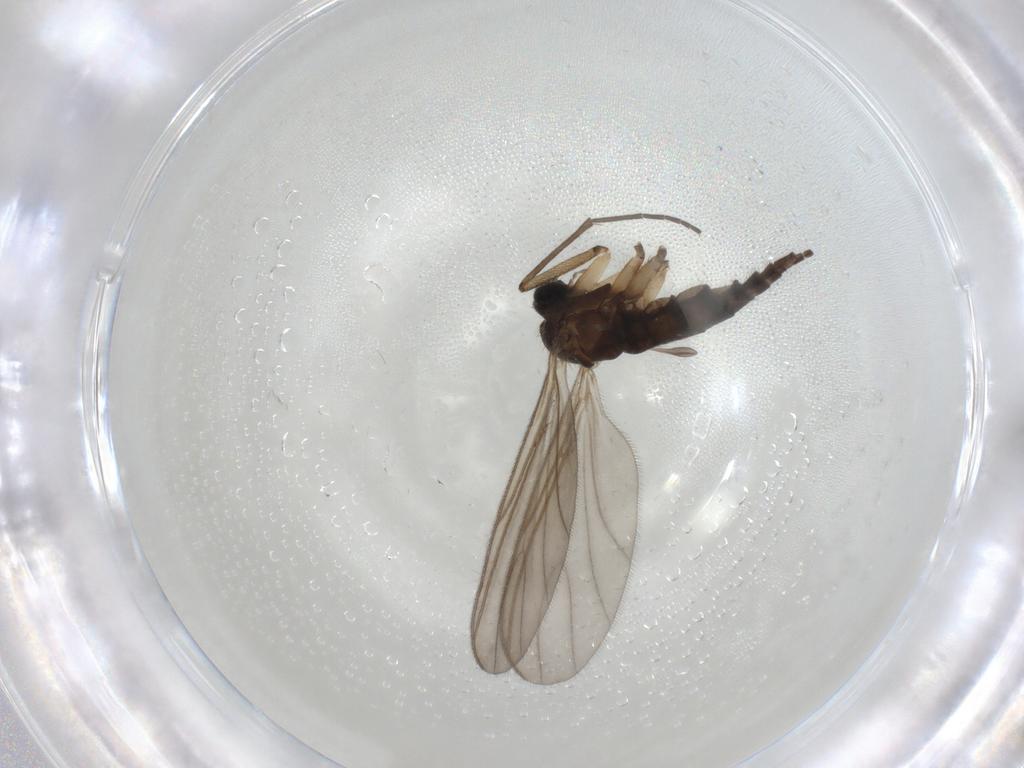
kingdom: Animalia
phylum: Arthropoda
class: Insecta
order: Diptera
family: Sciaridae
